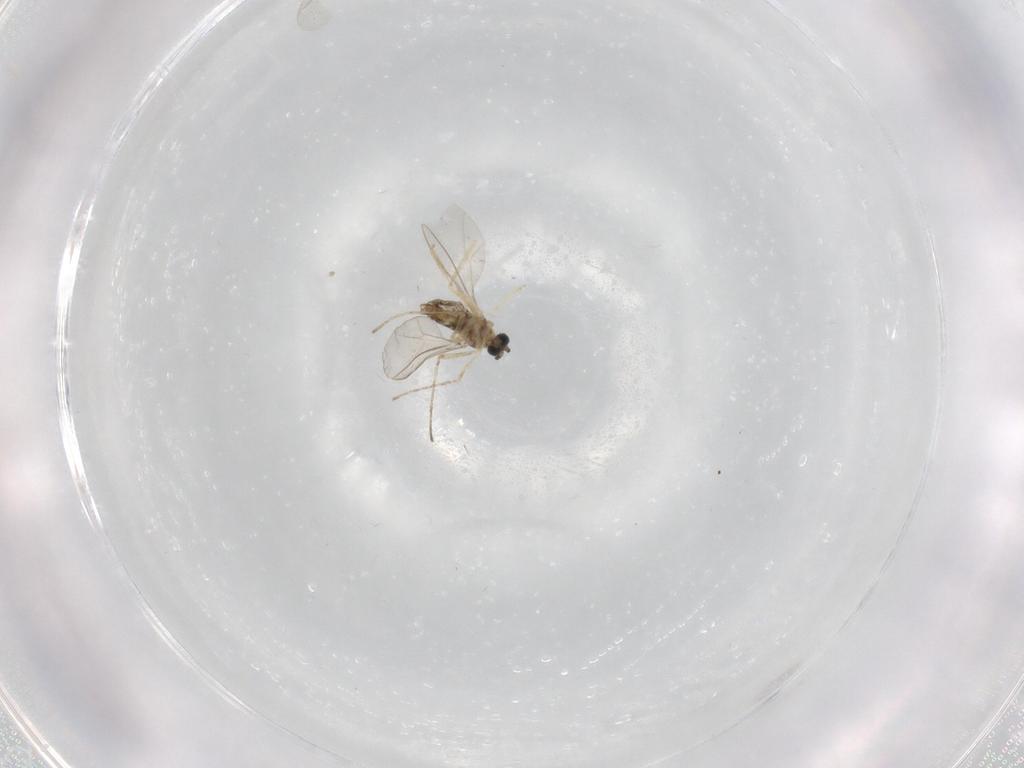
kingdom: Animalia
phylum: Arthropoda
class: Insecta
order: Diptera
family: Cecidomyiidae
